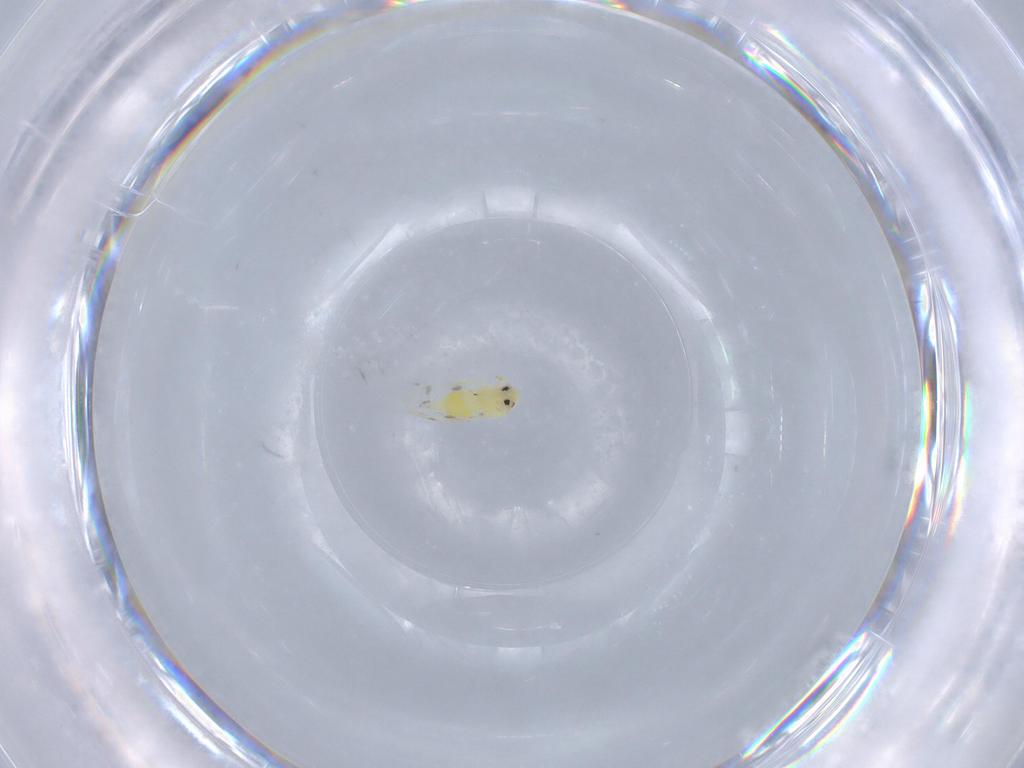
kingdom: Animalia
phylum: Arthropoda
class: Insecta
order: Hemiptera
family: Aleyrodidae
